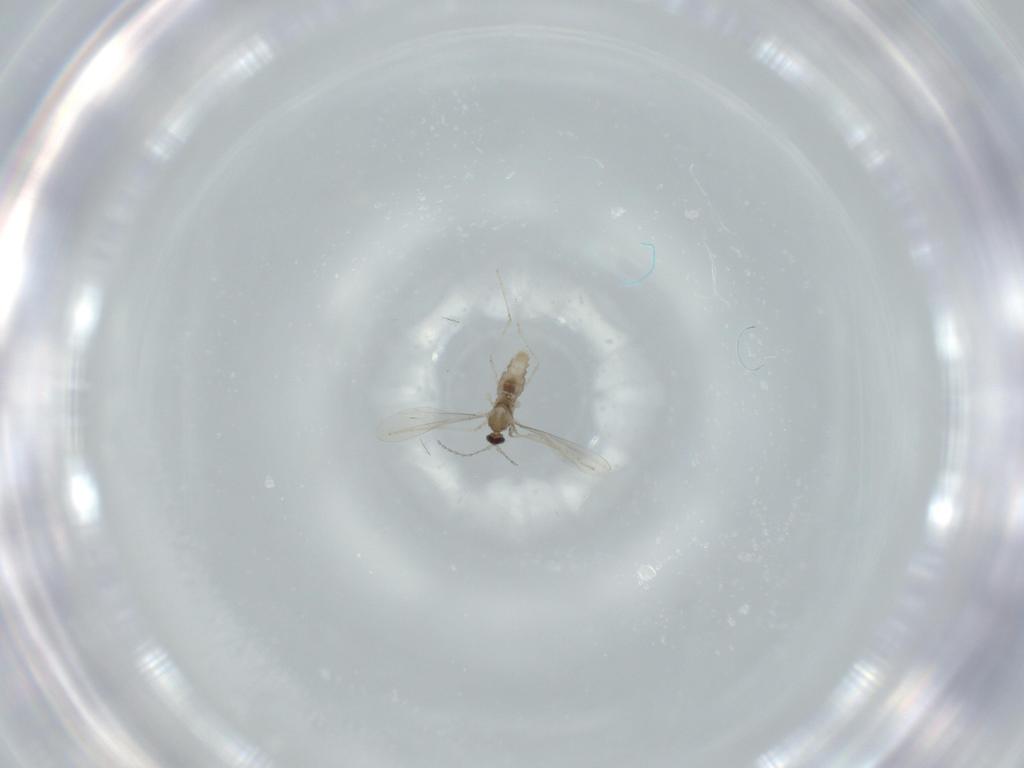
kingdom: Animalia
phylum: Arthropoda
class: Insecta
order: Diptera
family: Cecidomyiidae
